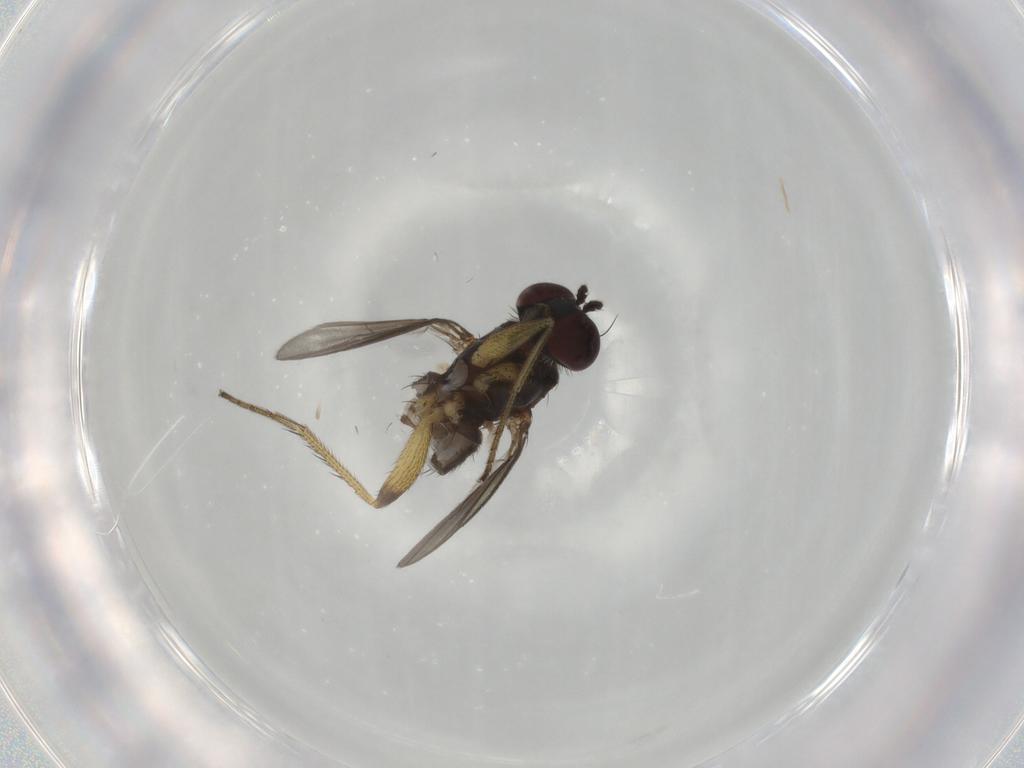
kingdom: Animalia
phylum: Arthropoda
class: Insecta
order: Diptera
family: Dolichopodidae
